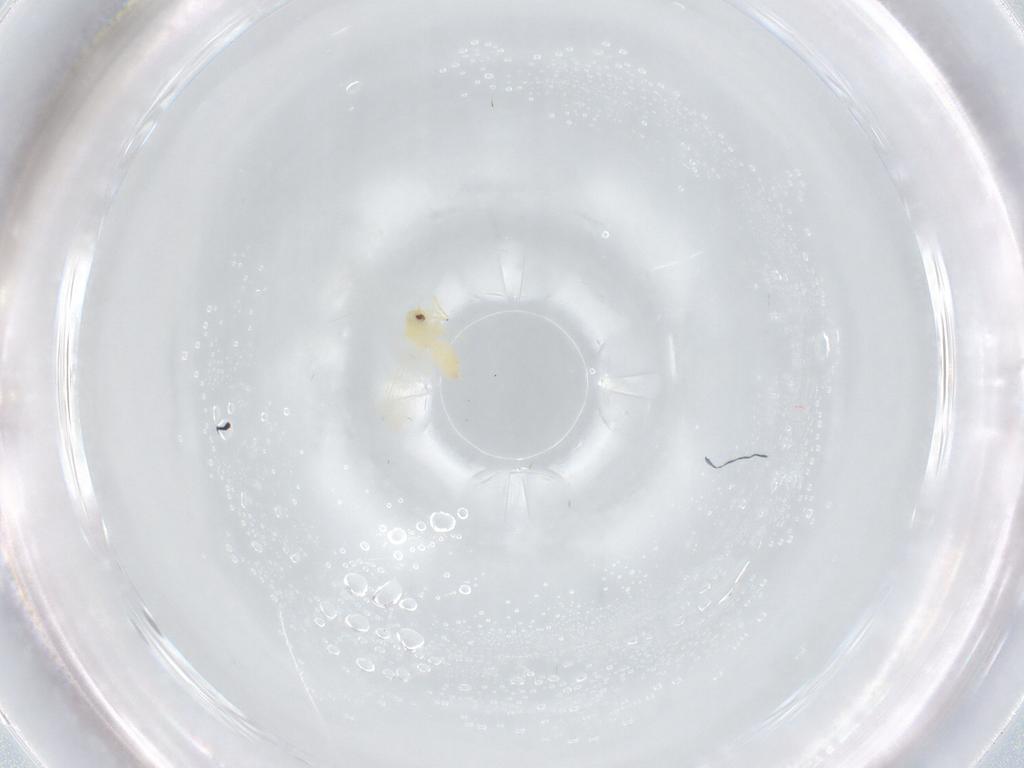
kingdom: Animalia
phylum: Arthropoda
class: Insecta
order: Hemiptera
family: Aleyrodidae
